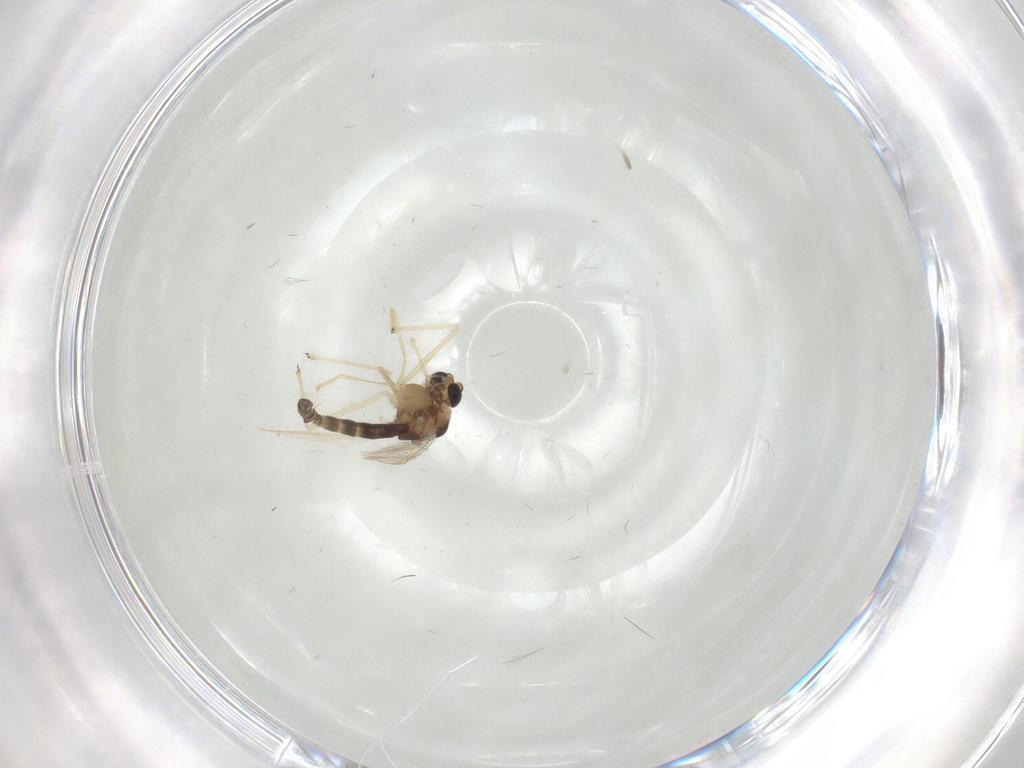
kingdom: Animalia
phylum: Arthropoda
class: Insecta
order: Diptera
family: Chironomidae
